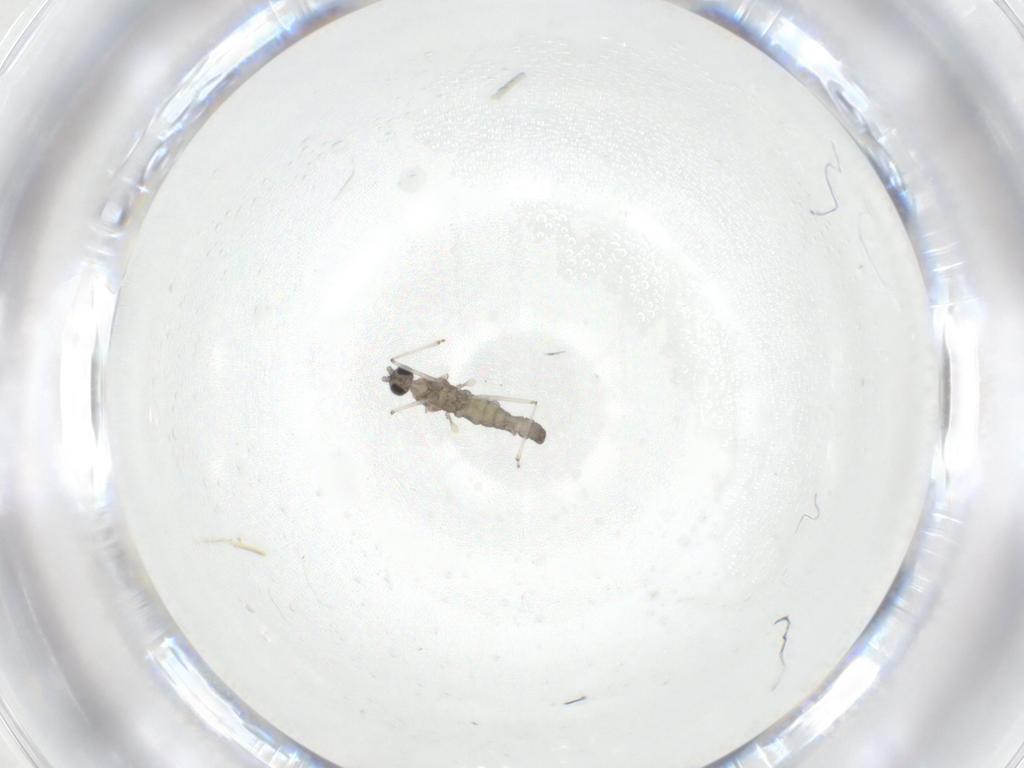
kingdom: Animalia
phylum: Arthropoda
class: Insecta
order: Diptera
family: Cecidomyiidae
